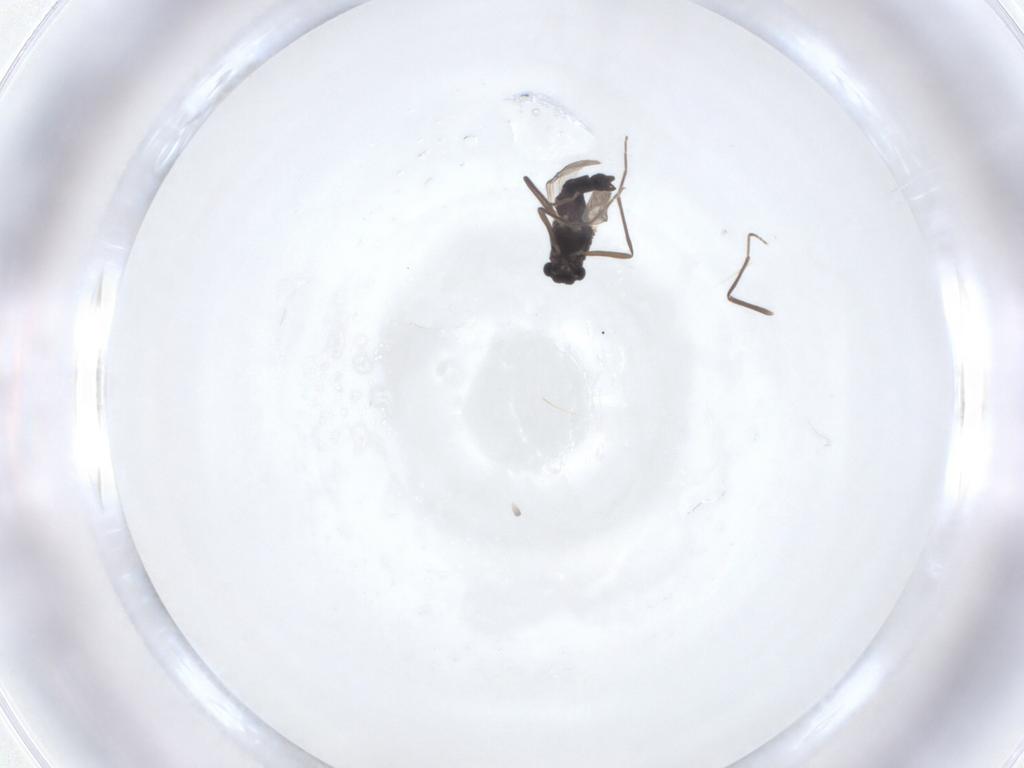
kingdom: Animalia
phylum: Arthropoda
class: Insecta
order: Diptera
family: Chironomidae
